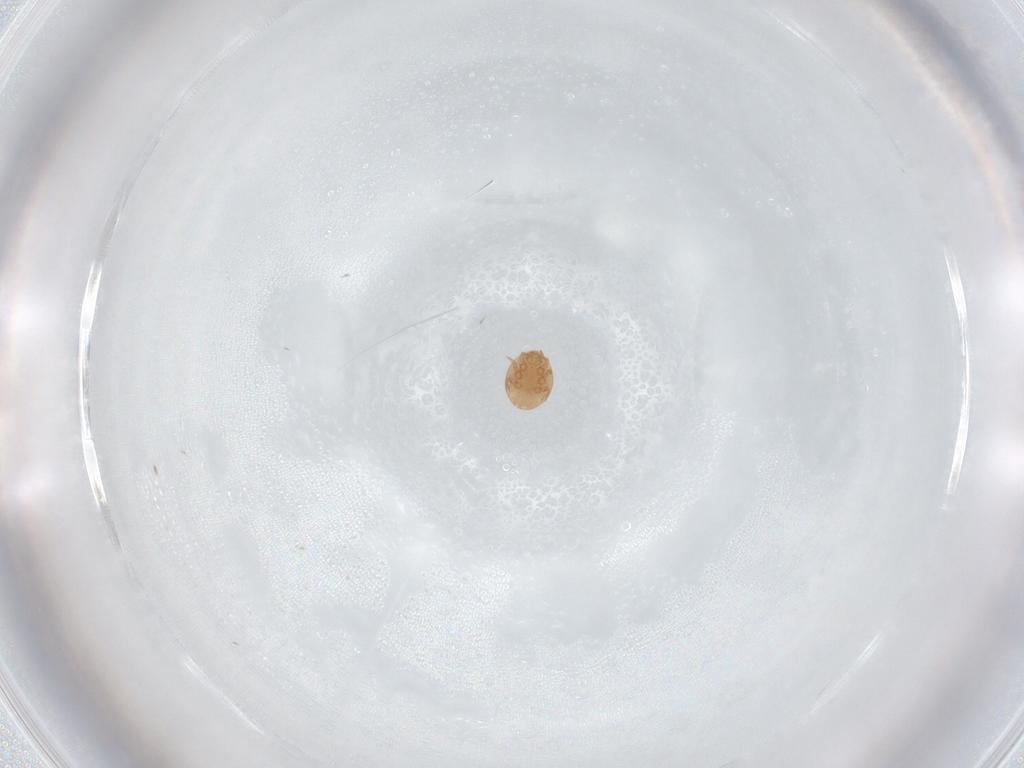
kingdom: Animalia
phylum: Arthropoda
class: Arachnida
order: Mesostigmata
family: Trematuridae
